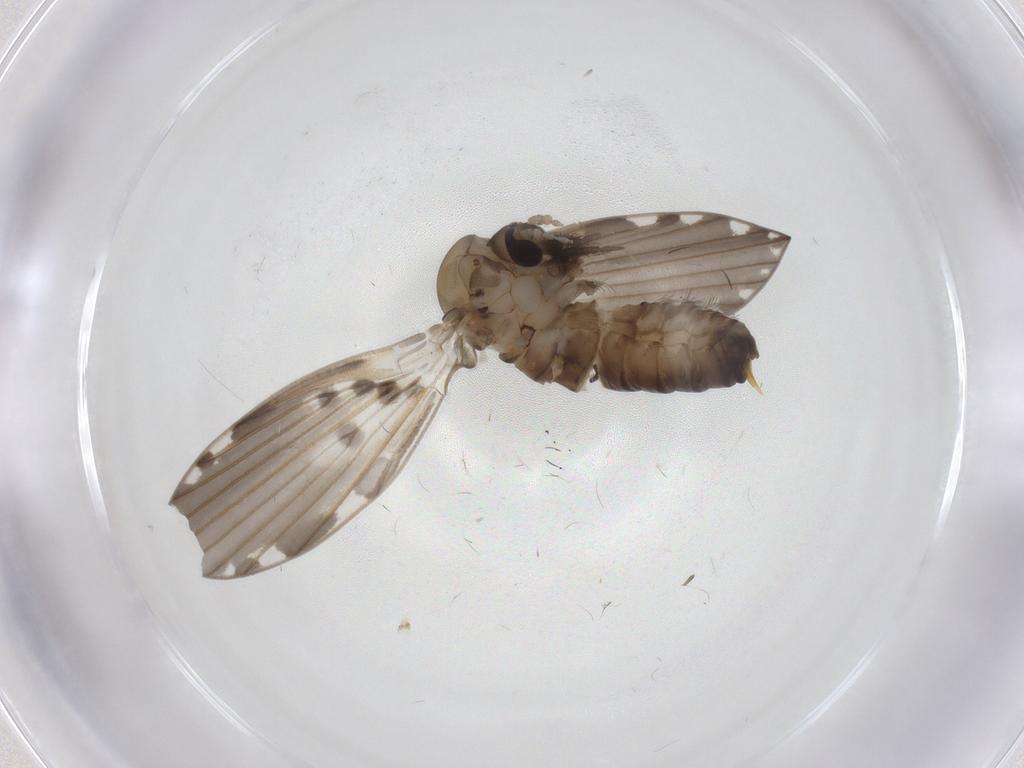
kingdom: Animalia
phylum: Arthropoda
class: Insecta
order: Diptera
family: Psychodidae
